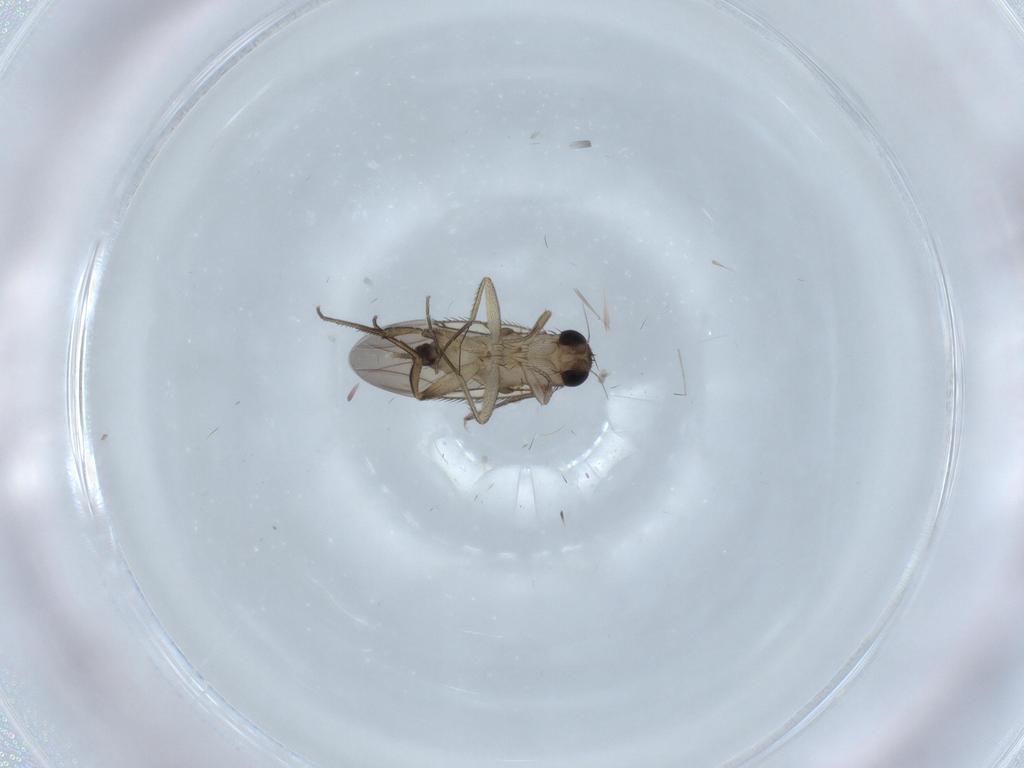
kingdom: Animalia
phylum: Arthropoda
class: Insecta
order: Diptera
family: Phoridae
